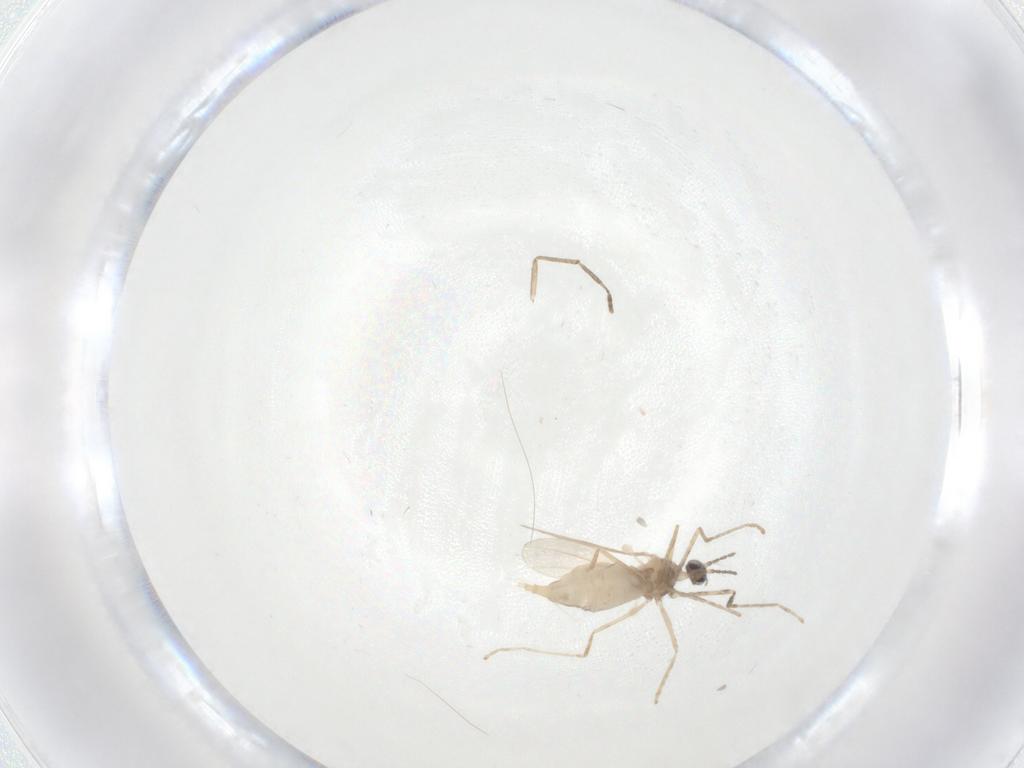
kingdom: Animalia
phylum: Arthropoda
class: Insecta
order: Diptera
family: Cecidomyiidae
